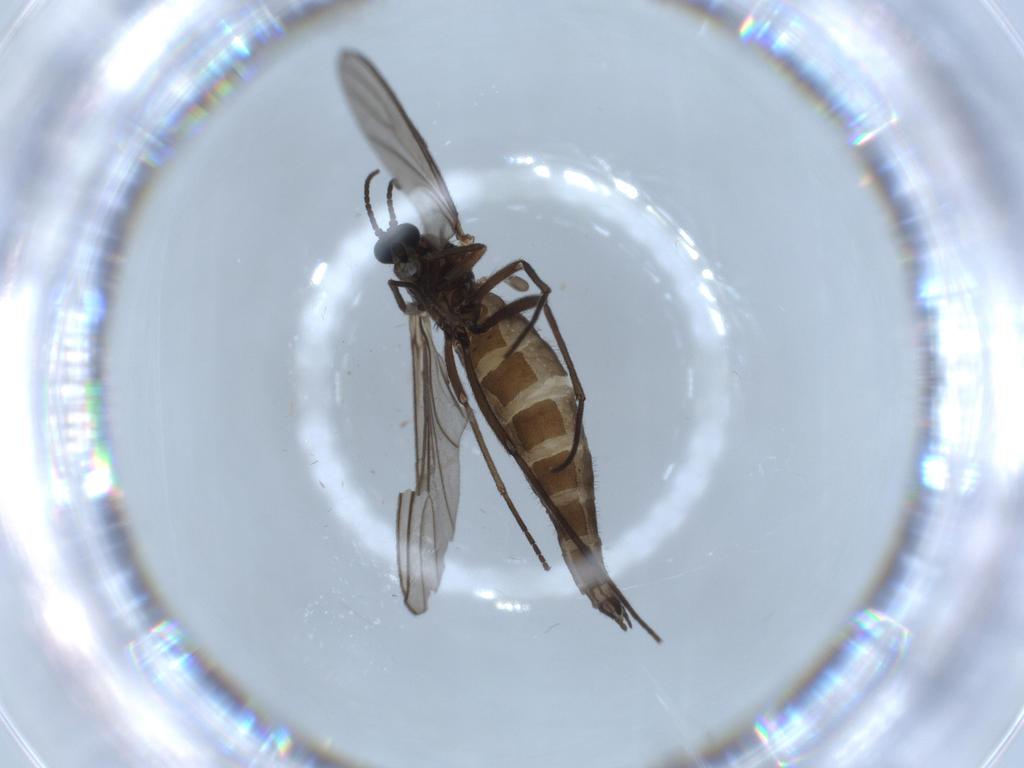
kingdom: Animalia
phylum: Arthropoda
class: Insecta
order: Diptera
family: Sciaridae
